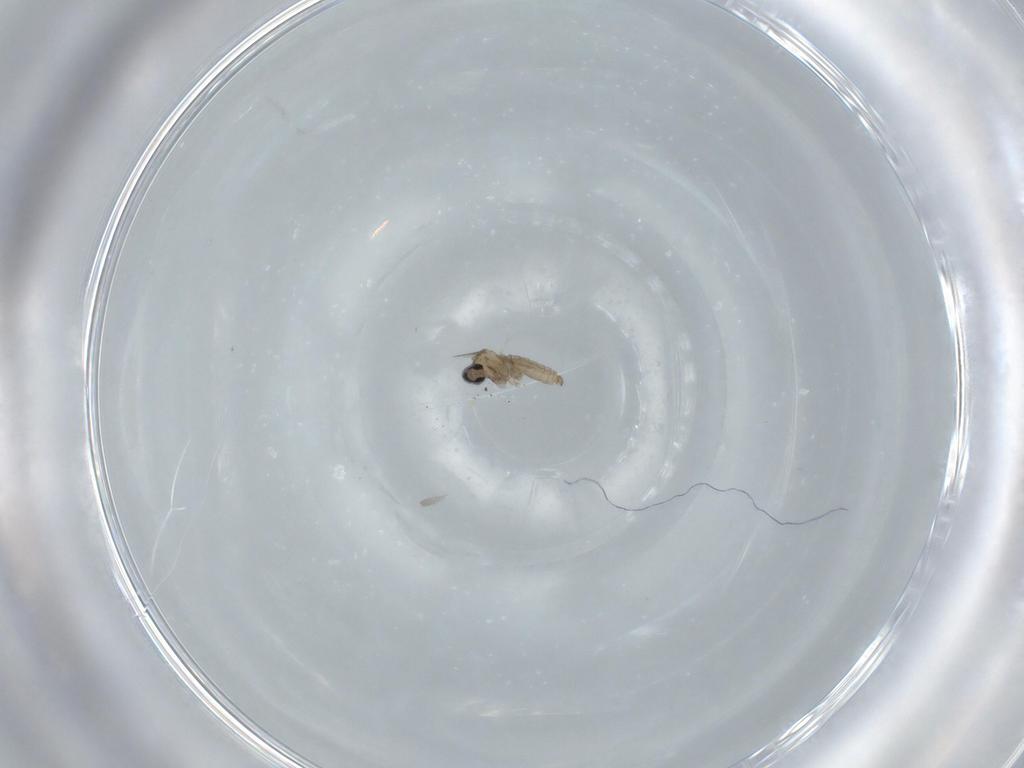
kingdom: Animalia
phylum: Arthropoda
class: Insecta
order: Diptera
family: Cecidomyiidae
